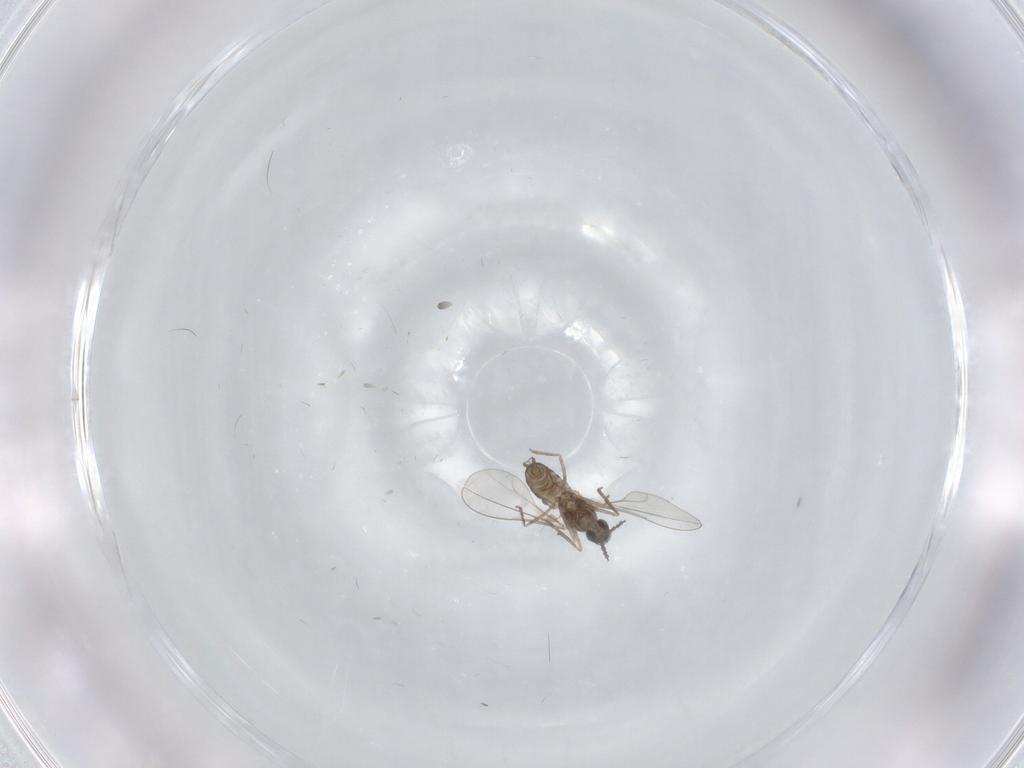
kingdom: Animalia
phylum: Arthropoda
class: Insecta
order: Diptera
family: Cecidomyiidae
